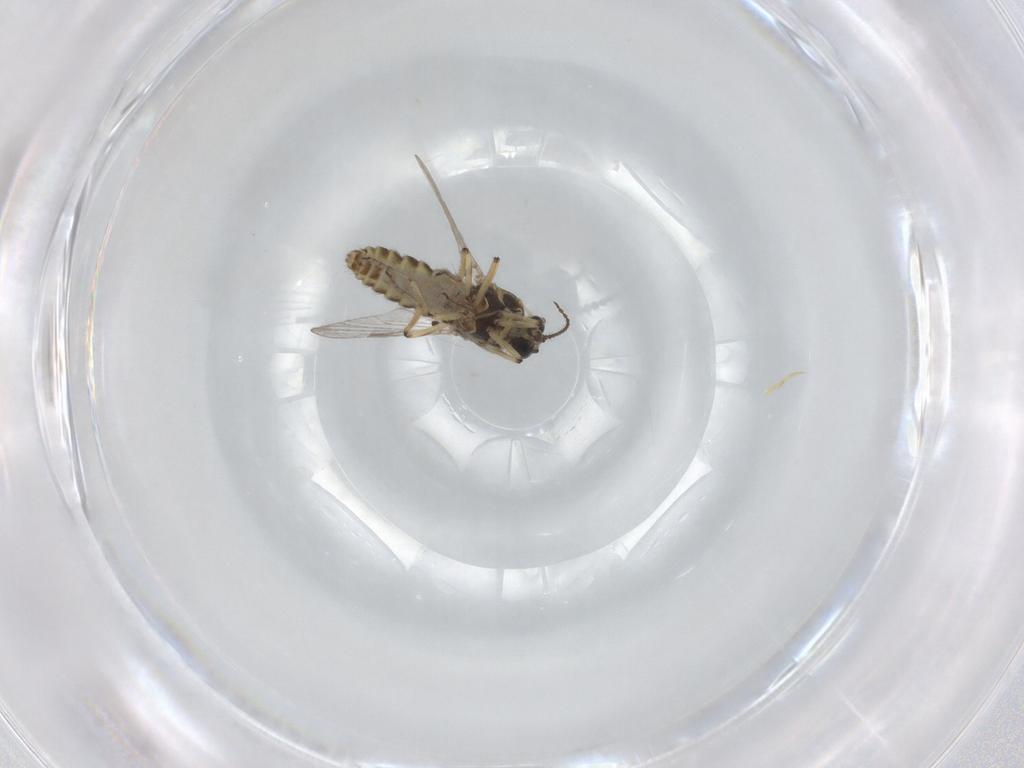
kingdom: Animalia
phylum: Arthropoda
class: Insecta
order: Diptera
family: Ceratopogonidae
